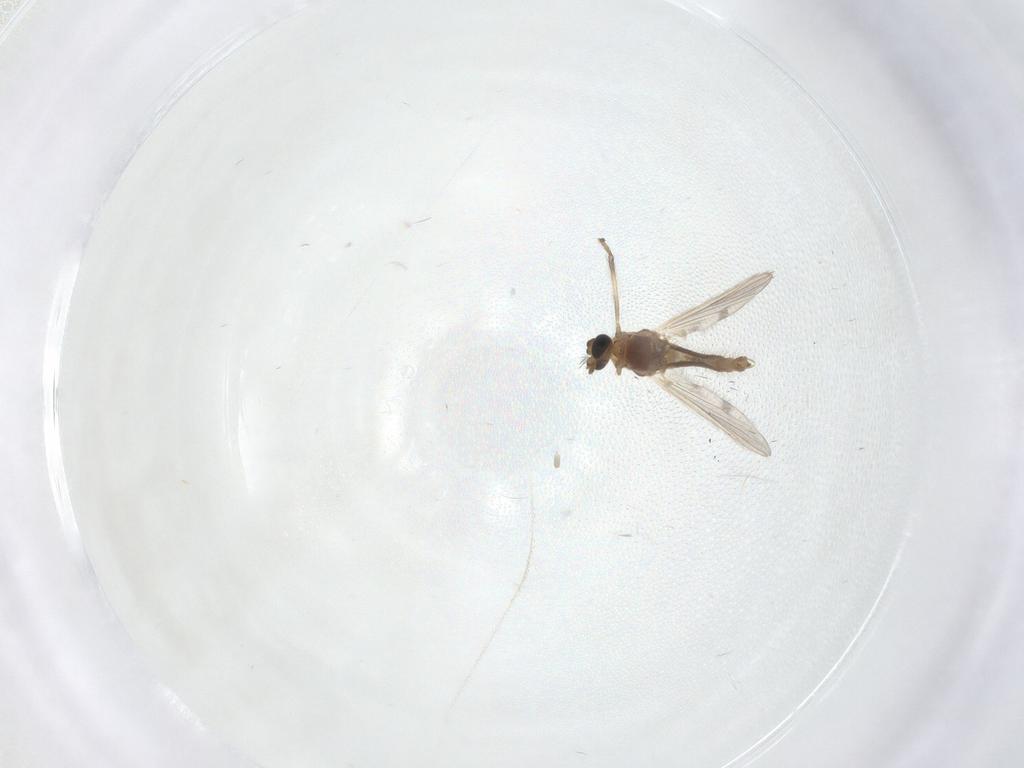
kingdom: Animalia
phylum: Arthropoda
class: Insecta
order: Diptera
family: Chironomidae
